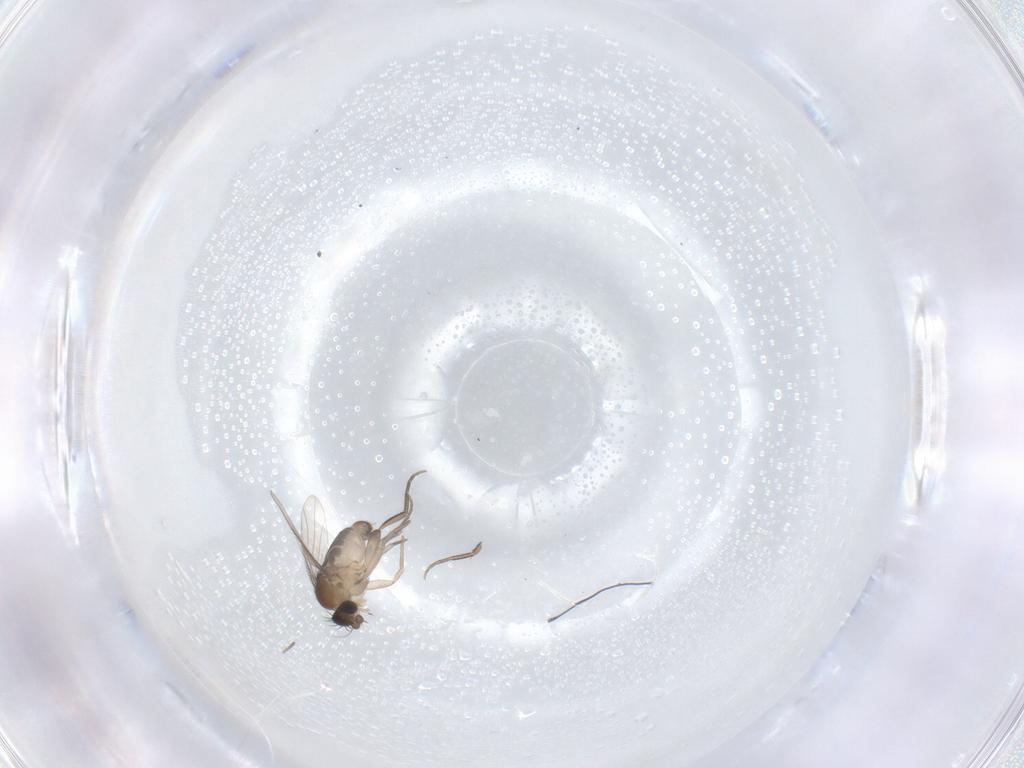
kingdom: Animalia
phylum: Arthropoda
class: Insecta
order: Diptera
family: Phoridae
